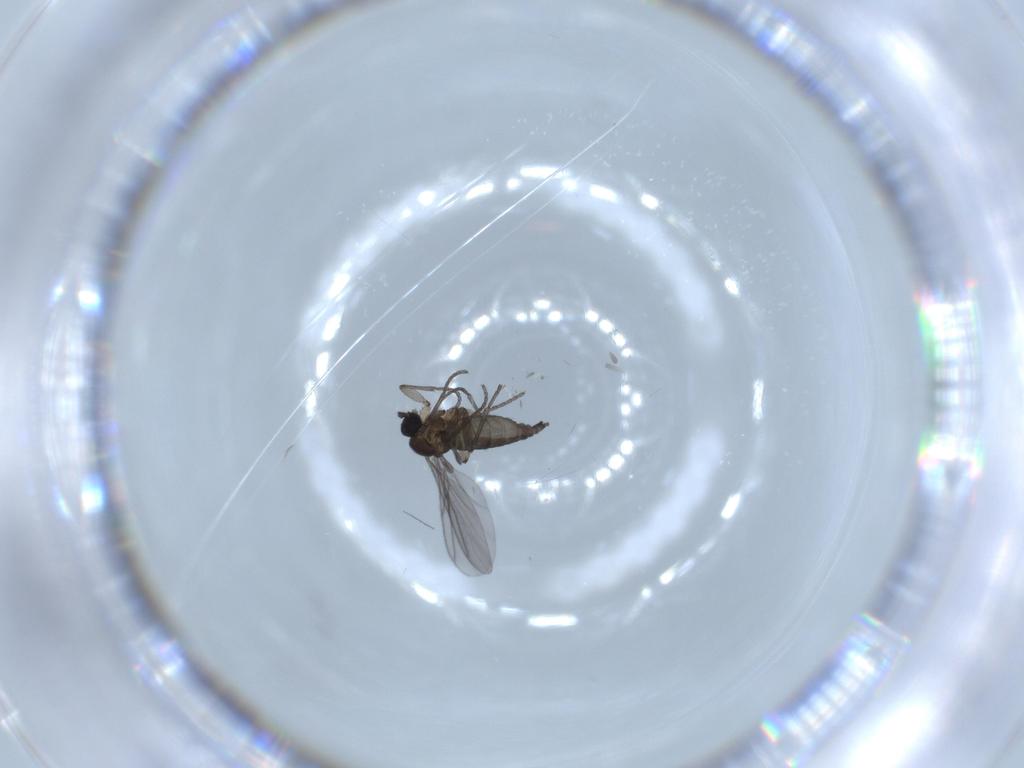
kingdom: Animalia
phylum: Arthropoda
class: Insecta
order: Diptera
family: Drosophilidae
